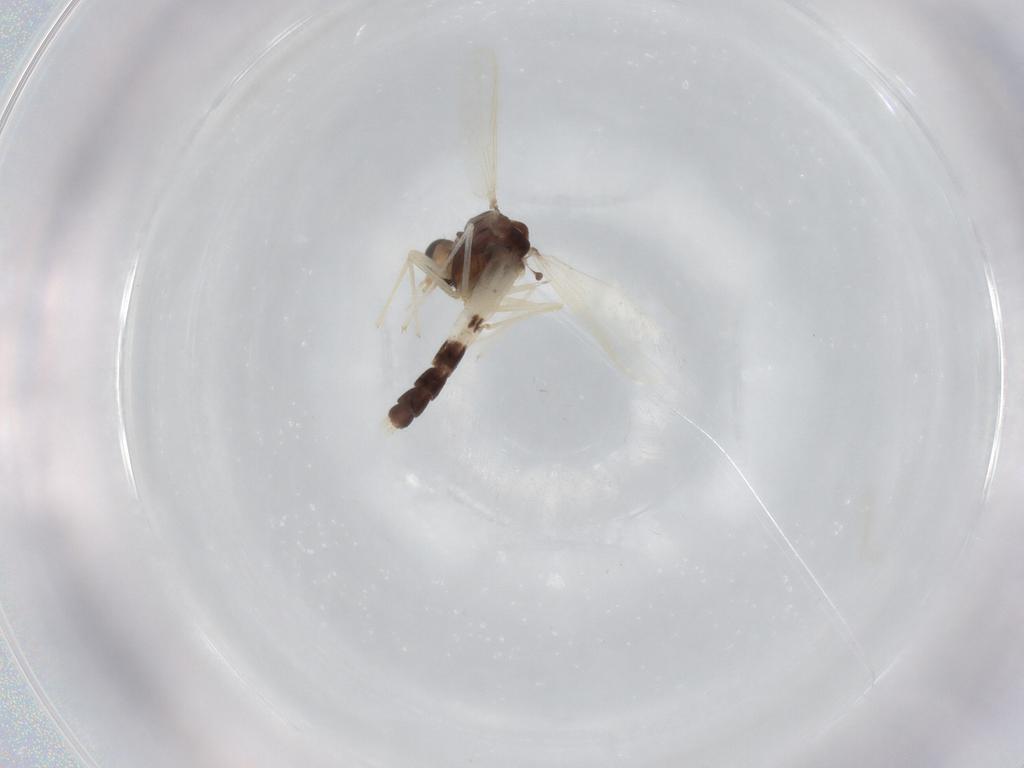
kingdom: Animalia
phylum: Arthropoda
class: Insecta
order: Diptera
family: Chironomidae
